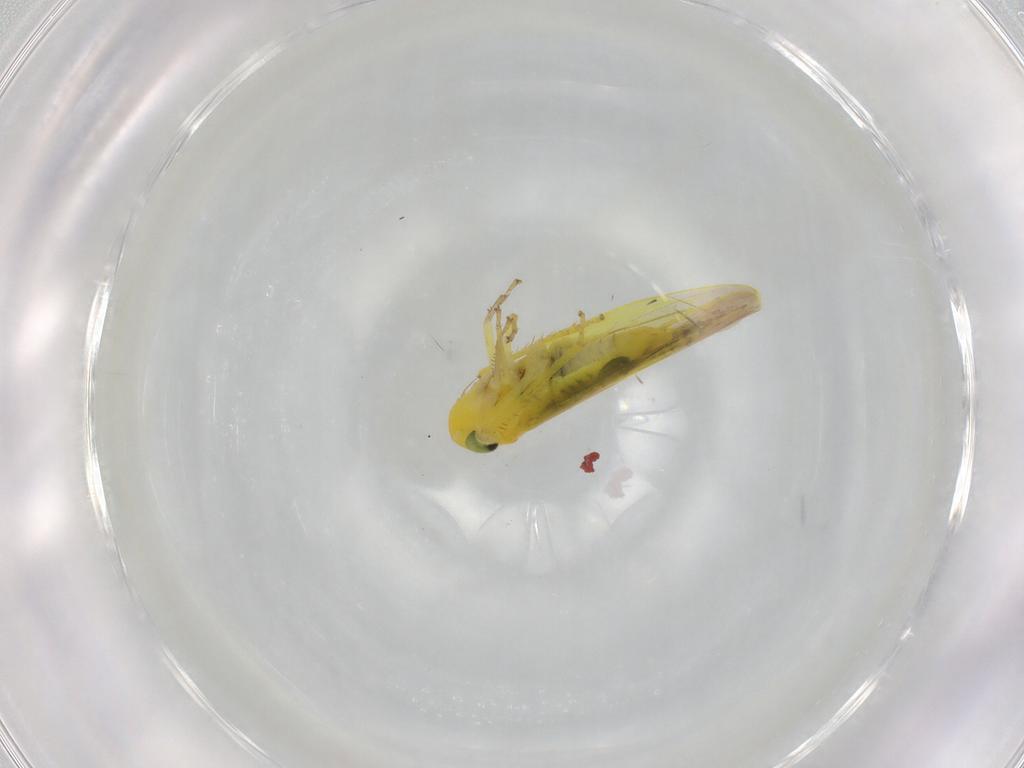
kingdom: Animalia
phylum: Arthropoda
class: Insecta
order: Hemiptera
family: Cicadellidae
